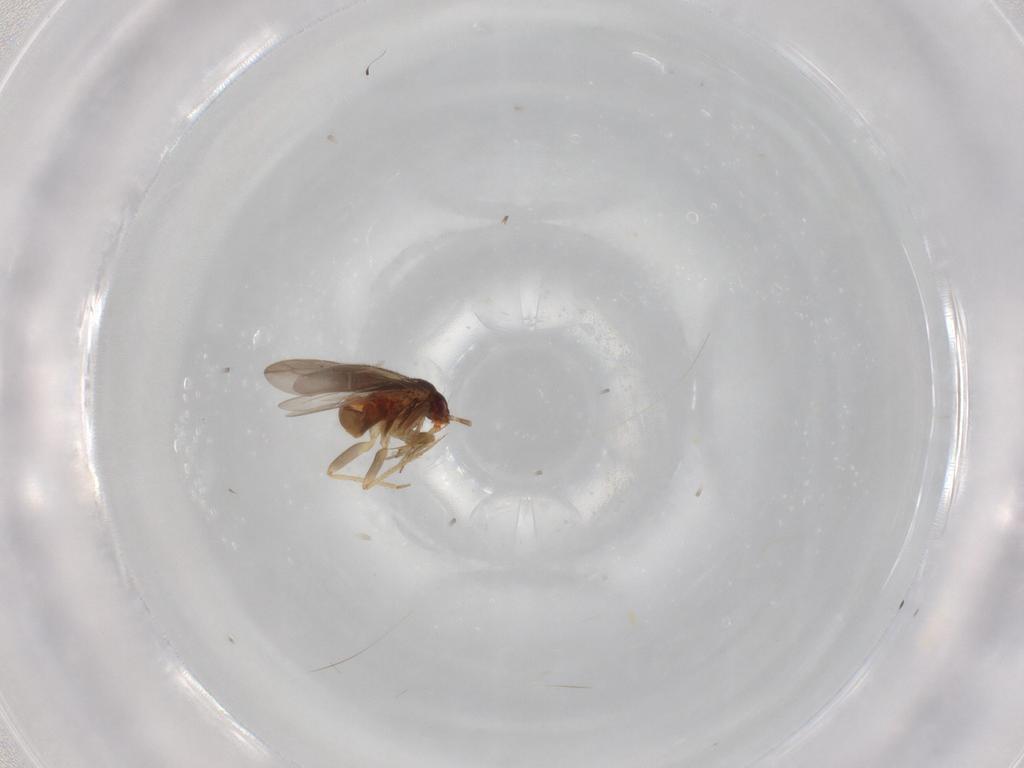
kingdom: Animalia
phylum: Arthropoda
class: Insecta
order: Hemiptera
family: Ceratocombidae
